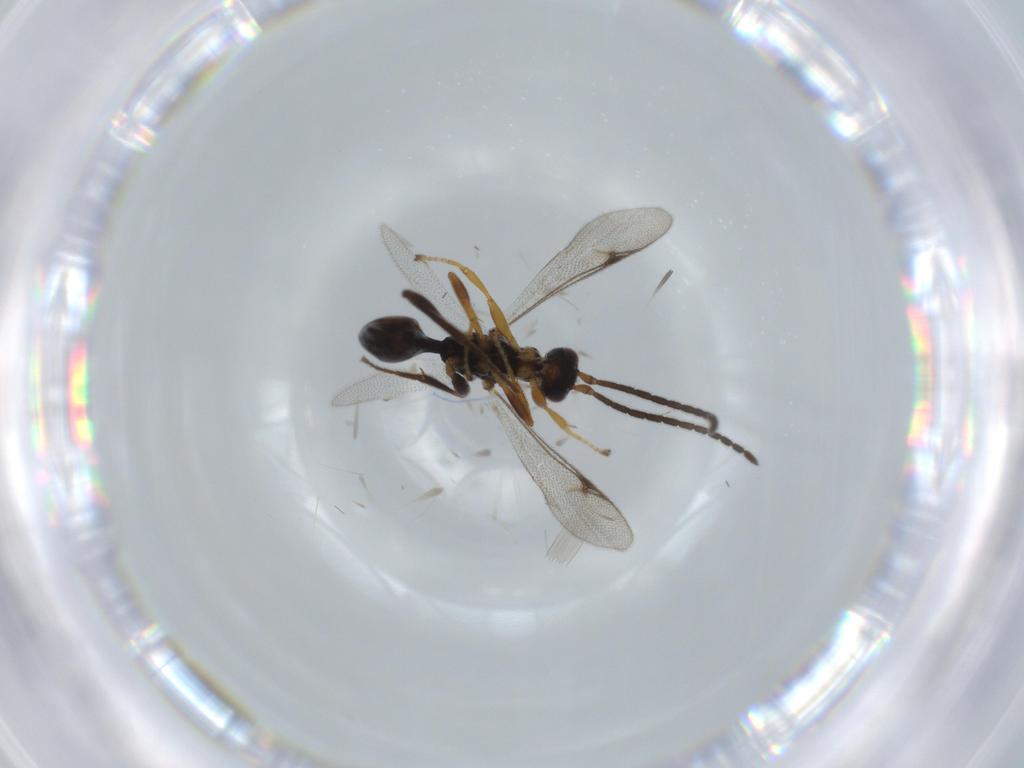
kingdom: Animalia
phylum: Arthropoda
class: Insecta
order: Hymenoptera
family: Proctotrupidae
